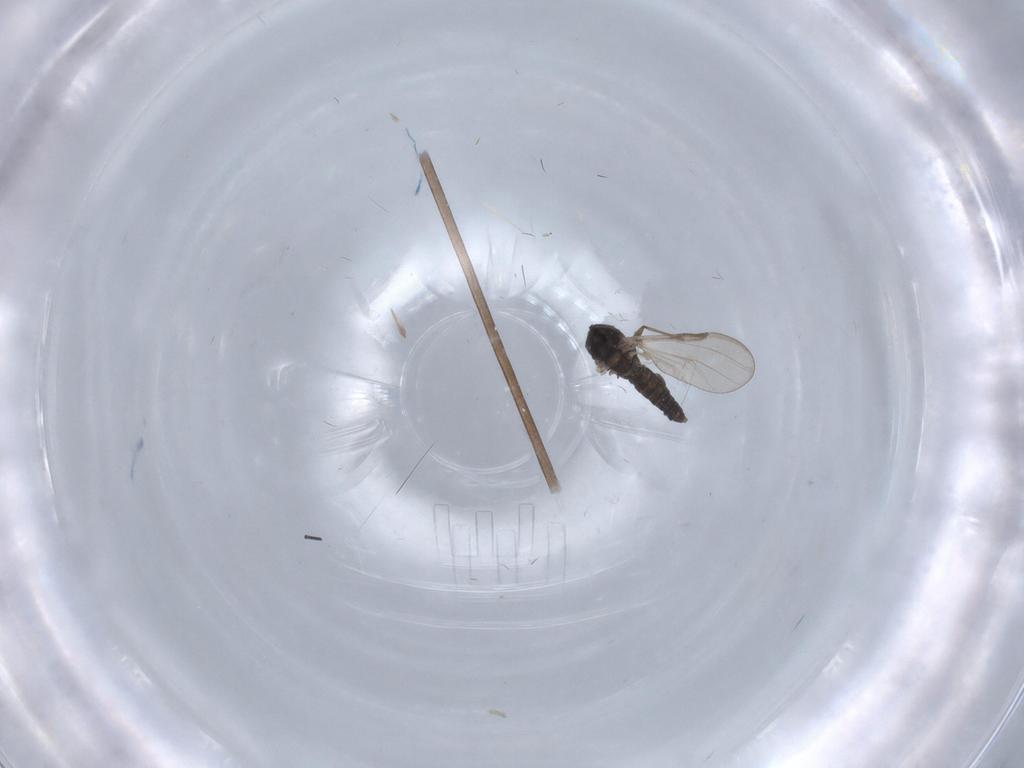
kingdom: Animalia
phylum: Arthropoda
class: Insecta
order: Diptera
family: Chironomidae
